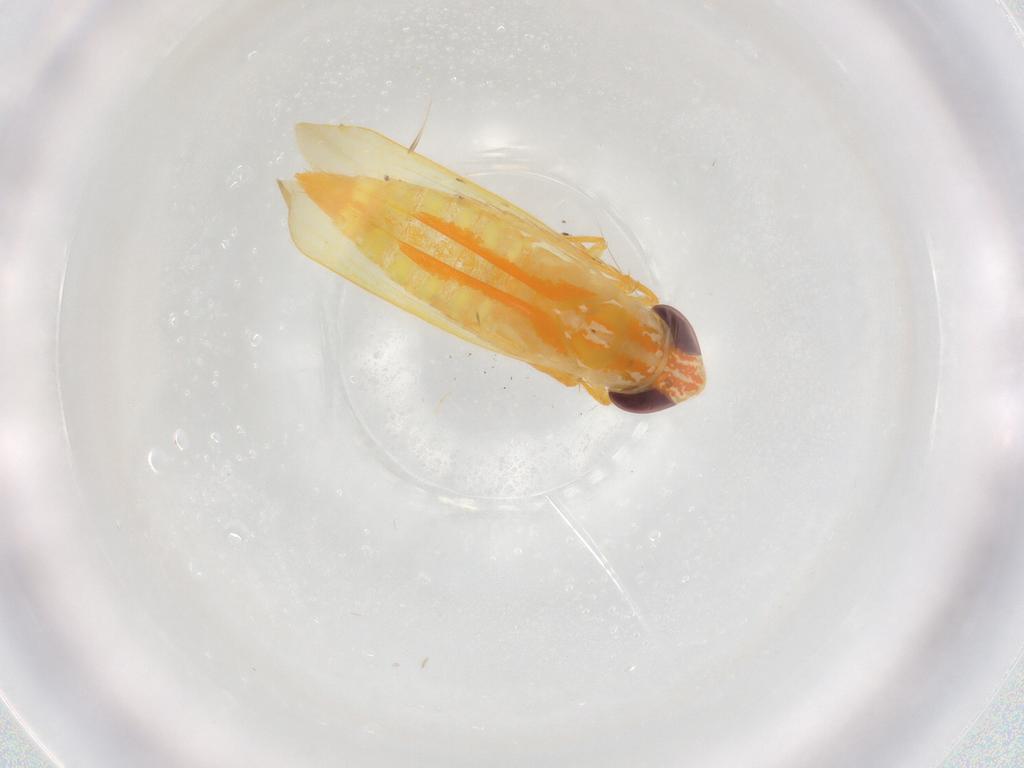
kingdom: Animalia
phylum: Arthropoda
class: Insecta
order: Hemiptera
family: Cicadellidae
